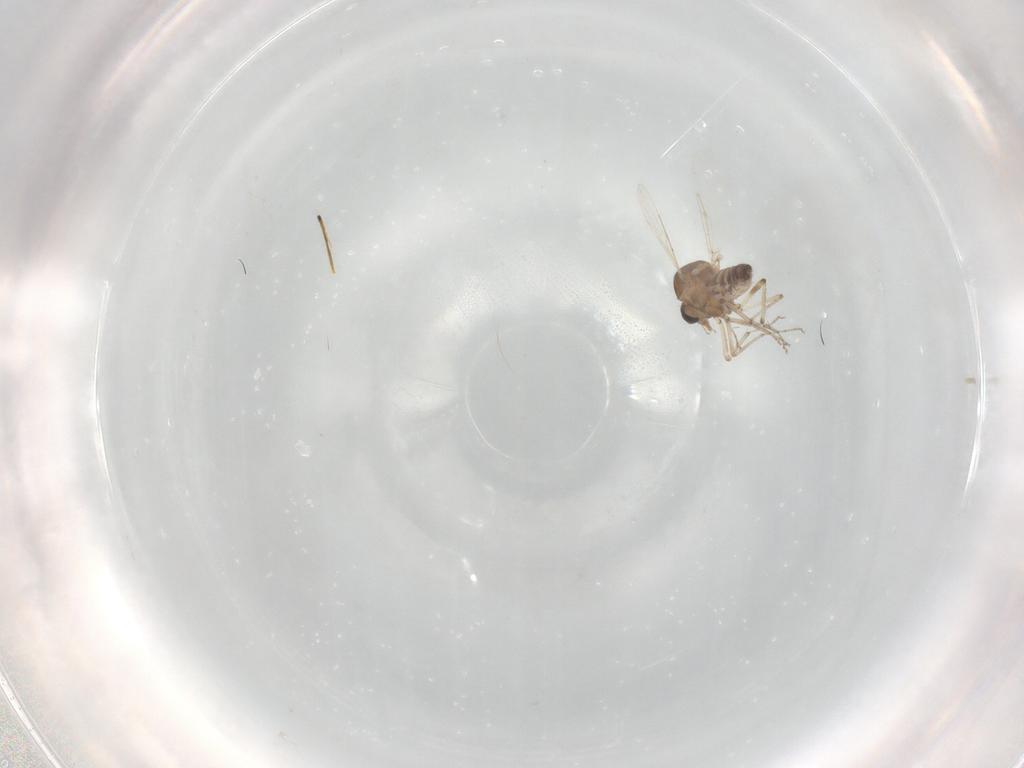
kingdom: Animalia
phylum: Arthropoda
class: Insecta
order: Diptera
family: Ceratopogonidae
